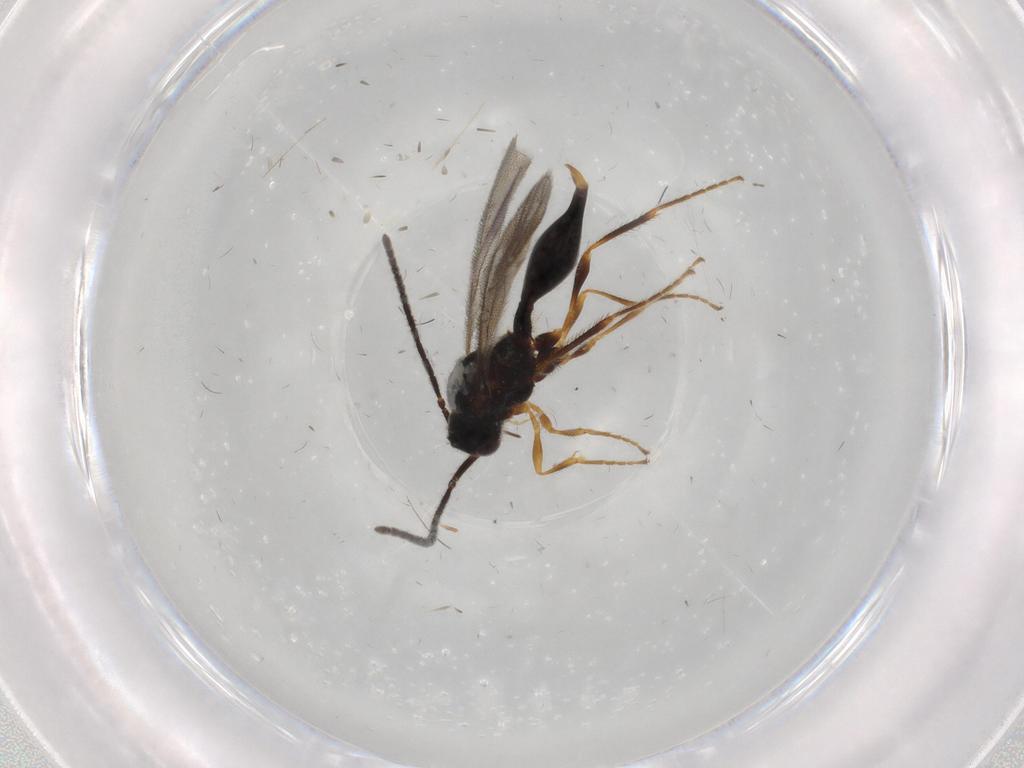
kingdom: Animalia
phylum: Arthropoda
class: Insecta
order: Hymenoptera
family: Diapriidae
